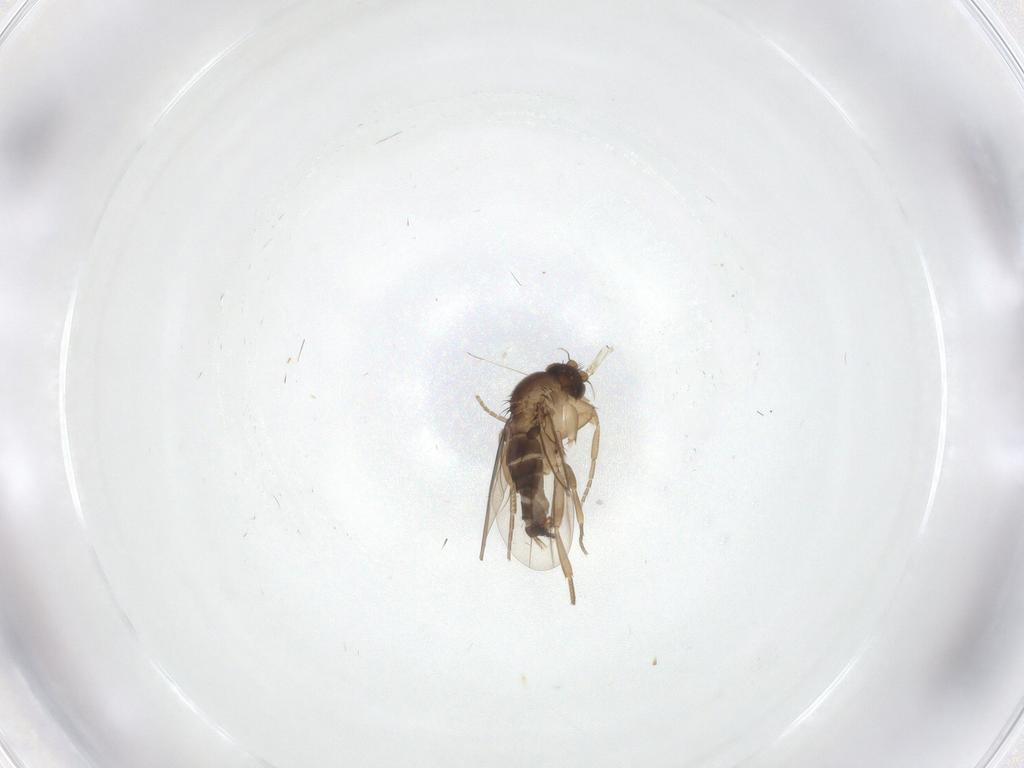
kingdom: Animalia
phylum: Arthropoda
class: Insecta
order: Diptera
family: Phoridae
